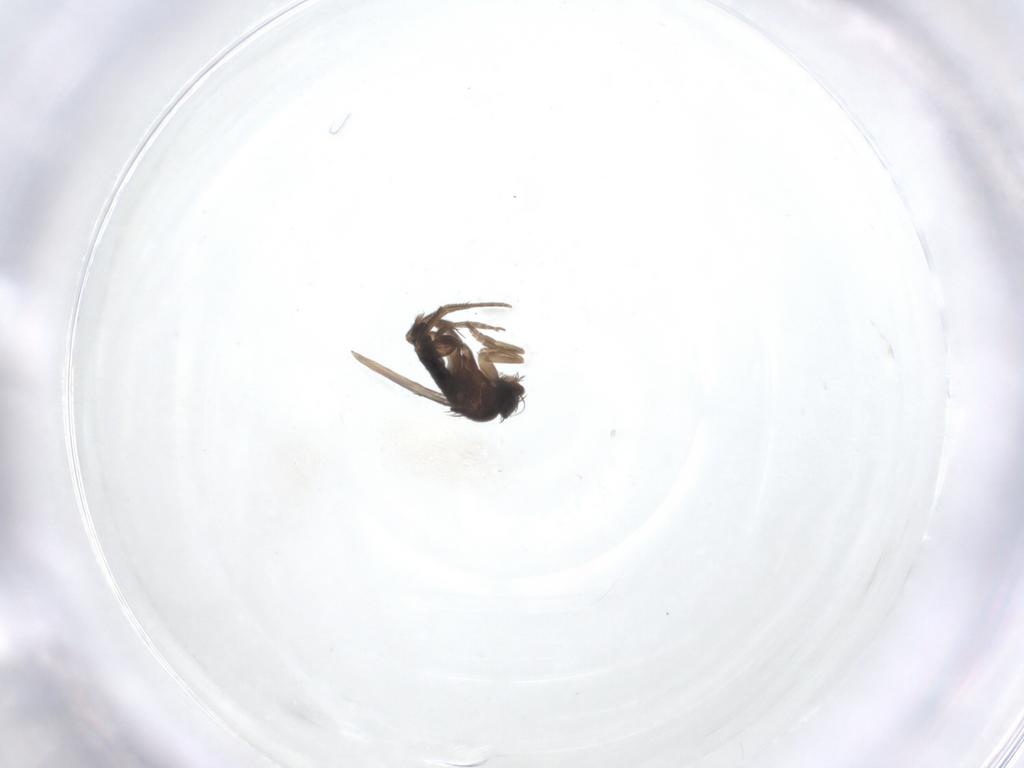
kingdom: Animalia
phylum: Arthropoda
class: Insecta
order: Diptera
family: Phoridae
